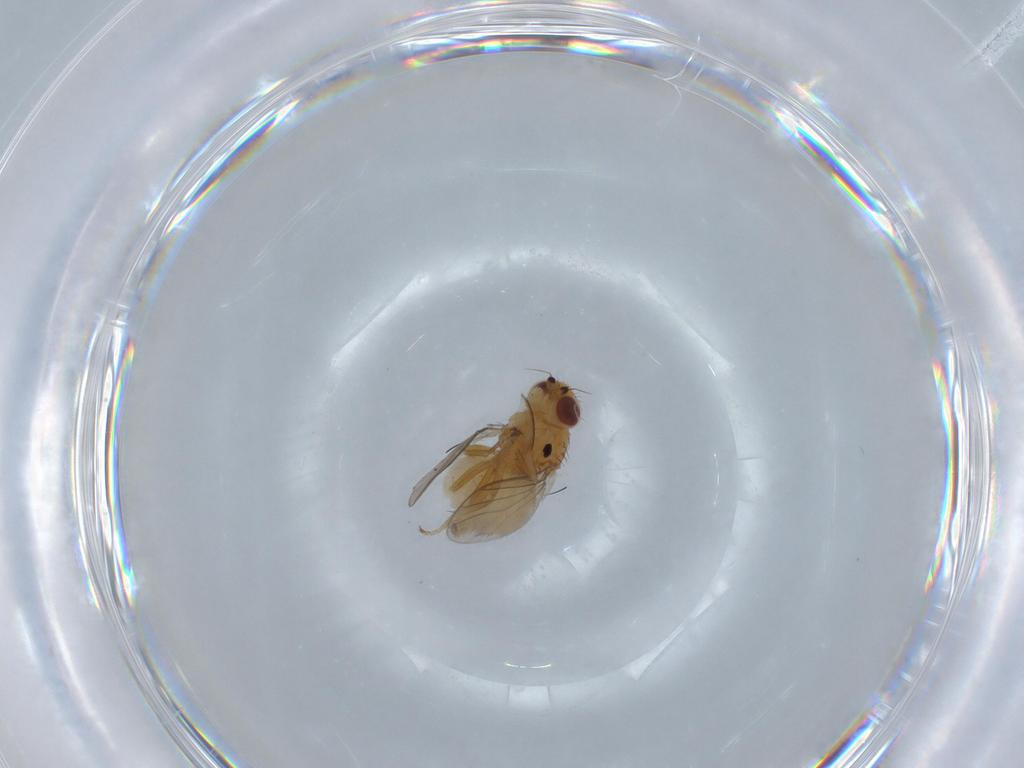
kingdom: Animalia
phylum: Arthropoda
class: Insecta
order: Diptera
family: Chloropidae
